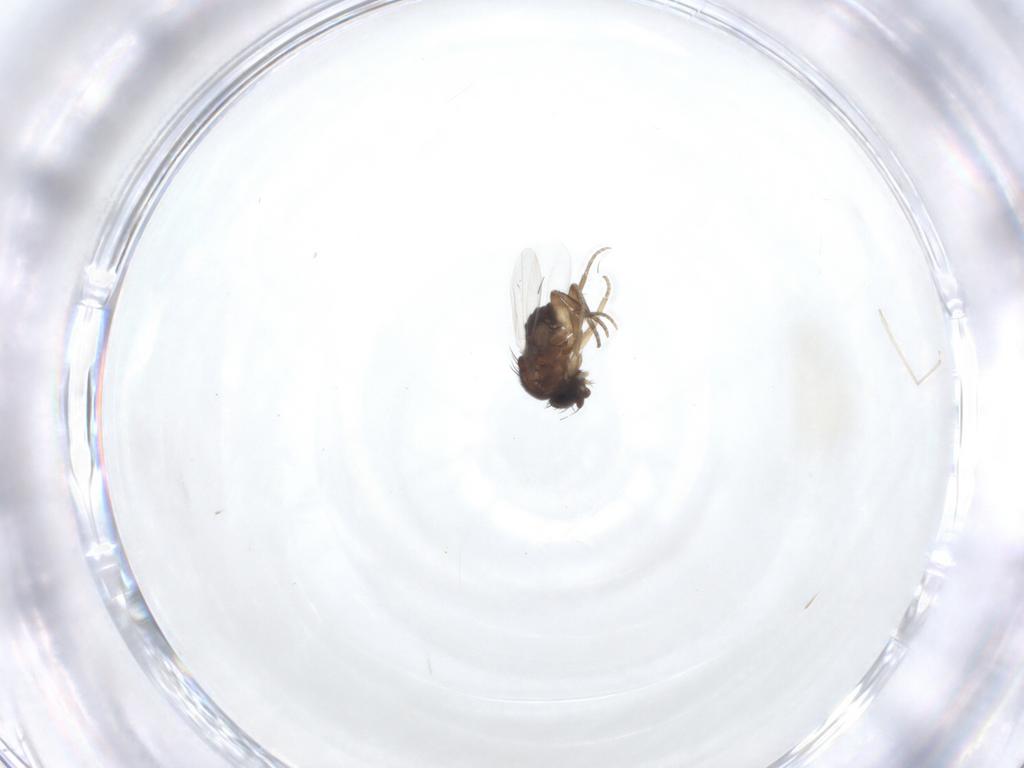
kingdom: Animalia
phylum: Arthropoda
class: Insecta
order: Diptera
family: Phoridae
